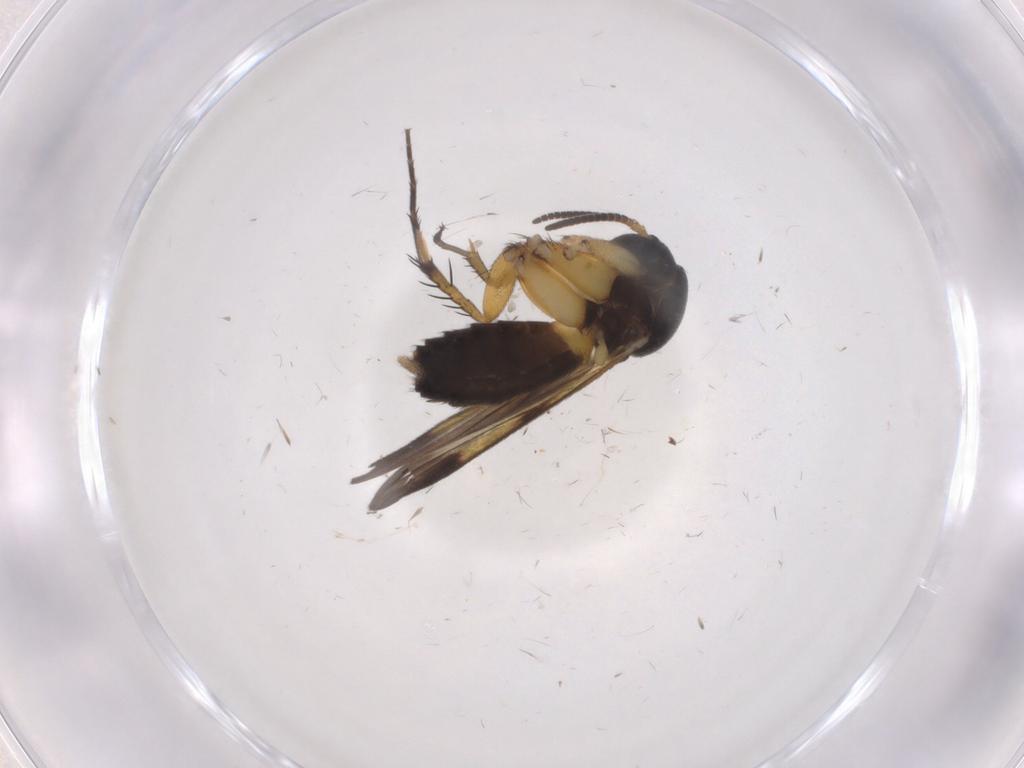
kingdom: Animalia
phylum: Arthropoda
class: Insecta
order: Diptera
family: Mycetophilidae
